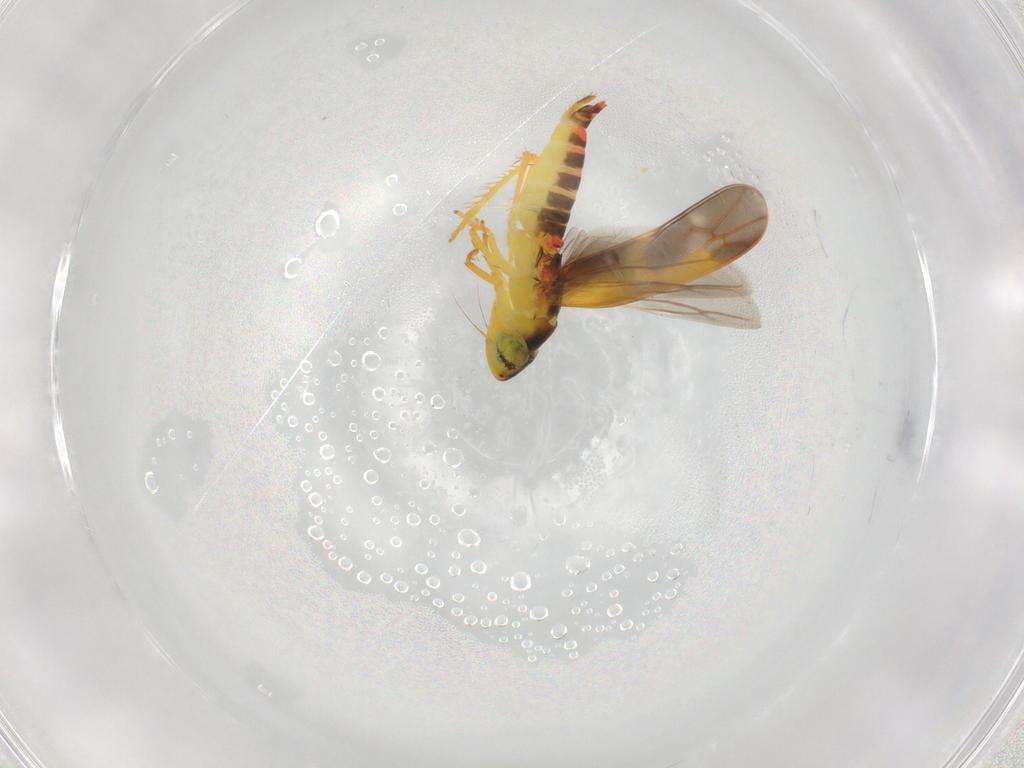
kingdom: Animalia
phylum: Arthropoda
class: Insecta
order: Hemiptera
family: Cicadellidae
